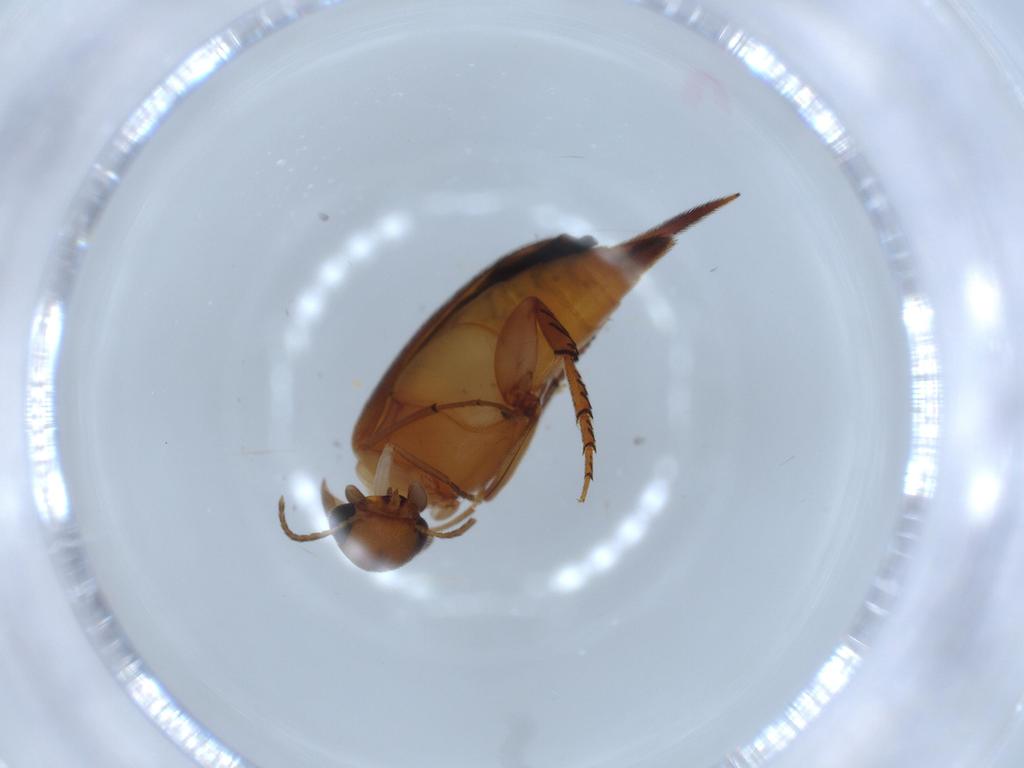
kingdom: Animalia
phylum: Arthropoda
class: Insecta
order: Coleoptera
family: Mordellidae
